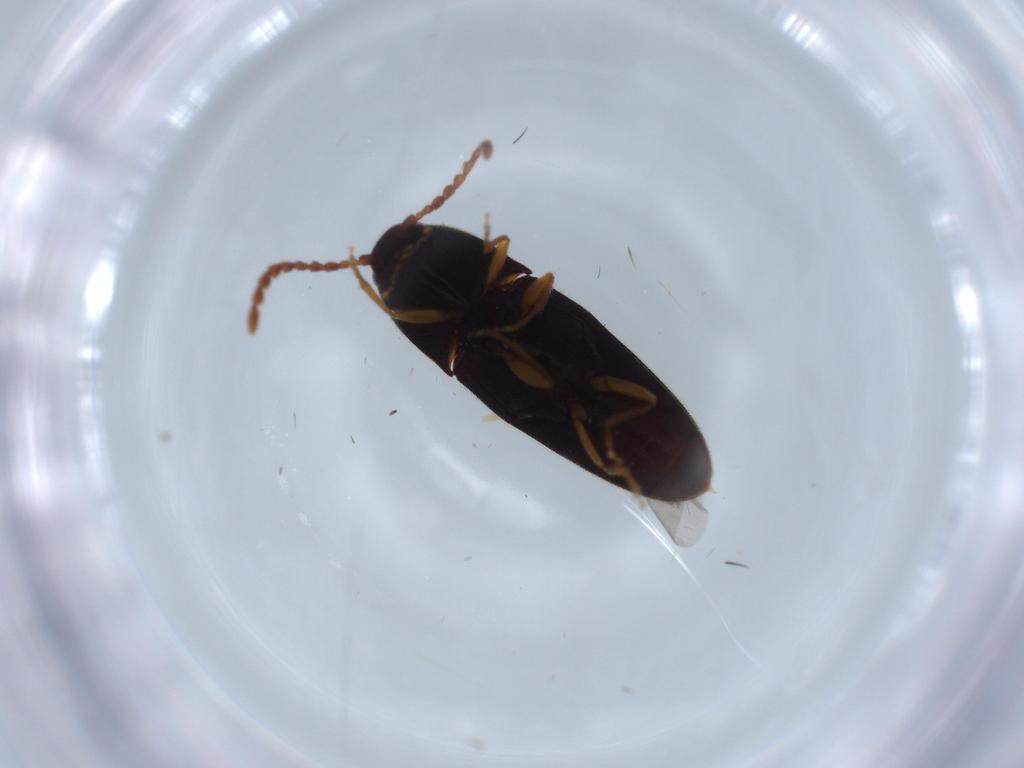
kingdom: Animalia
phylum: Arthropoda
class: Insecta
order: Coleoptera
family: Elateridae
